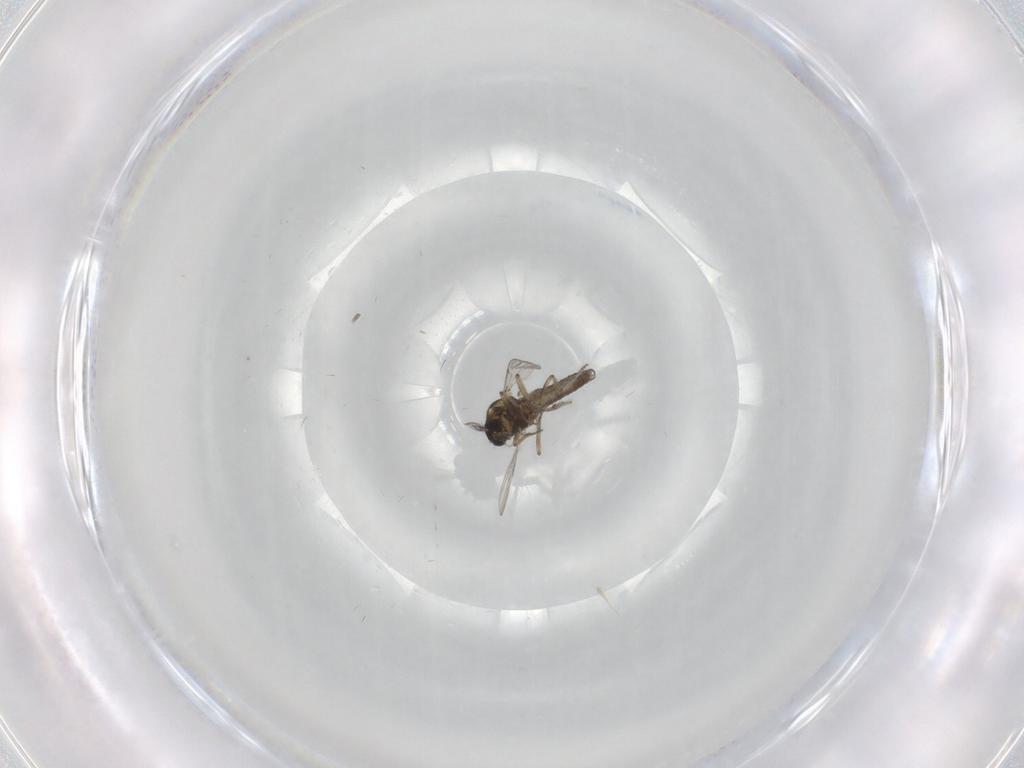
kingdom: Animalia
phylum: Arthropoda
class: Insecta
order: Diptera
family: Ceratopogonidae
